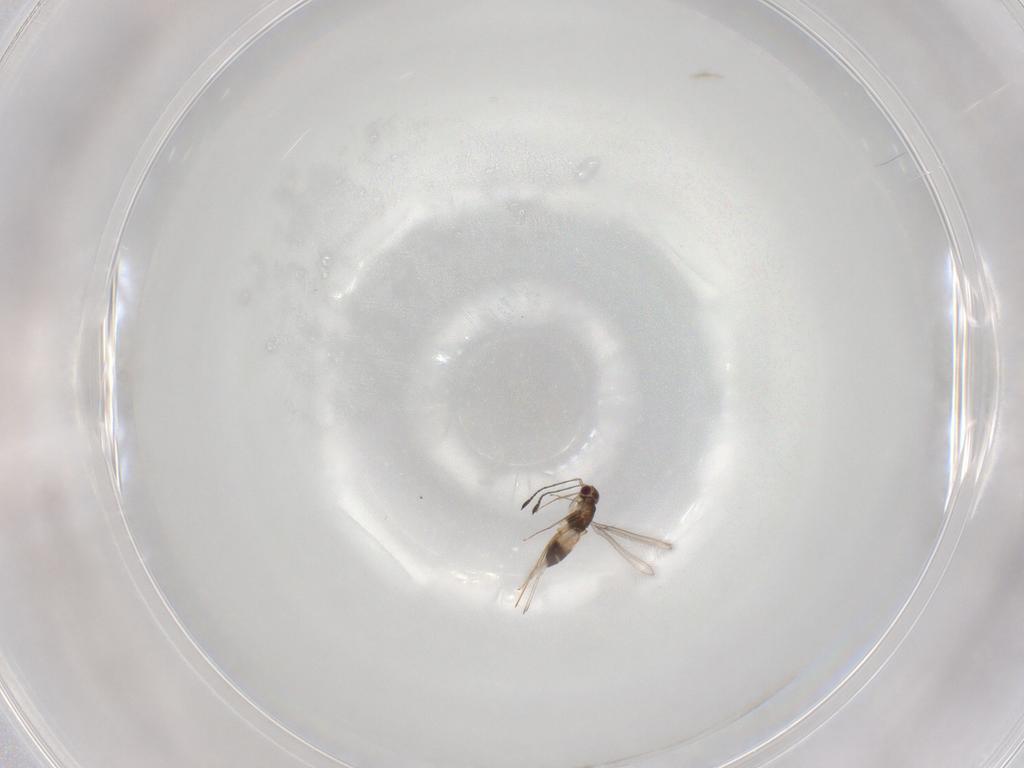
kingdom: Animalia
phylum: Arthropoda
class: Insecta
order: Hymenoptera
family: Mymaridae
